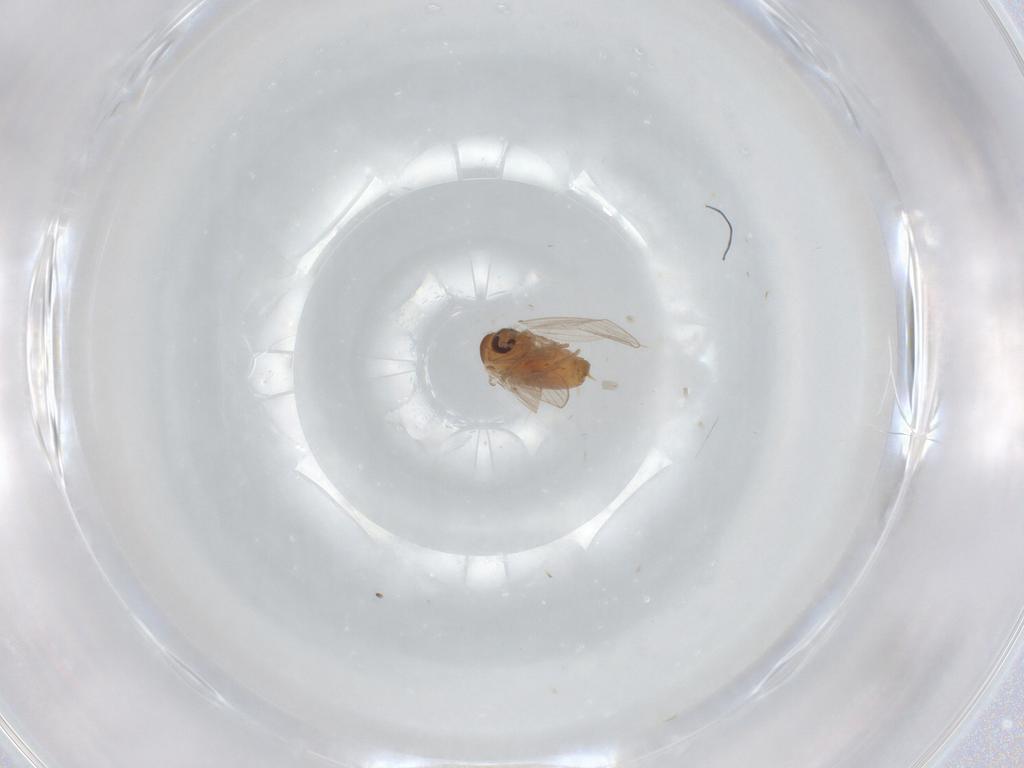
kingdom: Animalia
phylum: Arthropoda
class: Insecta
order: Diptera
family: Psychodidae
